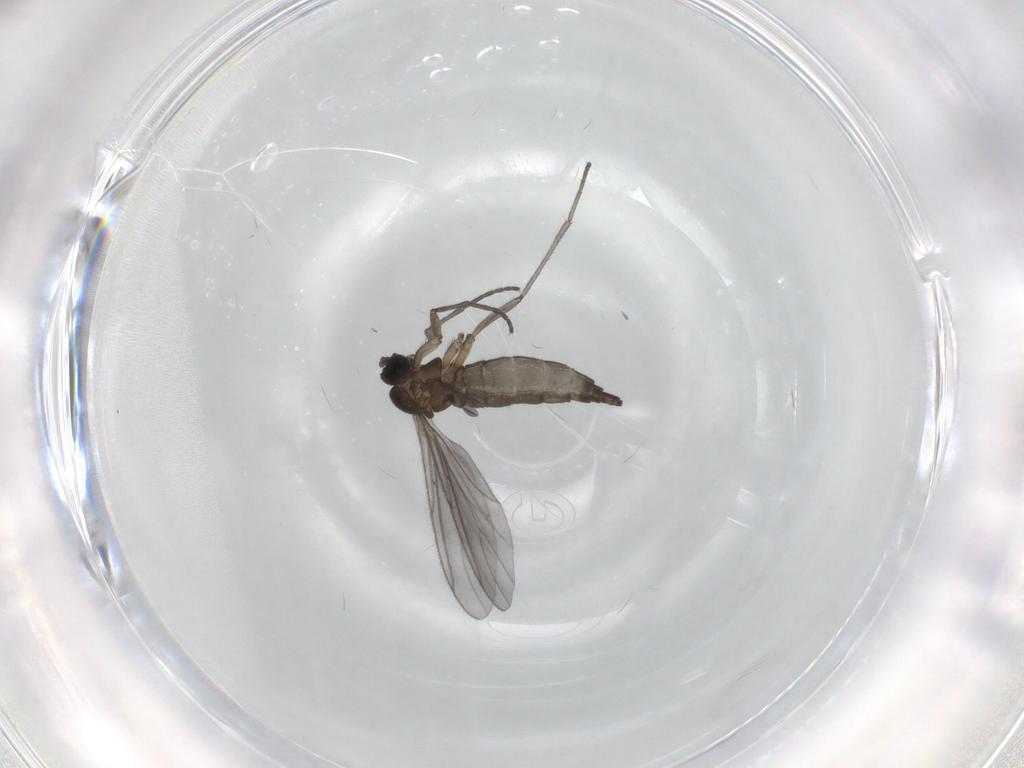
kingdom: Animalia
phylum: Arthropoda
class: Insecta
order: Diptera
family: Sciaridae
